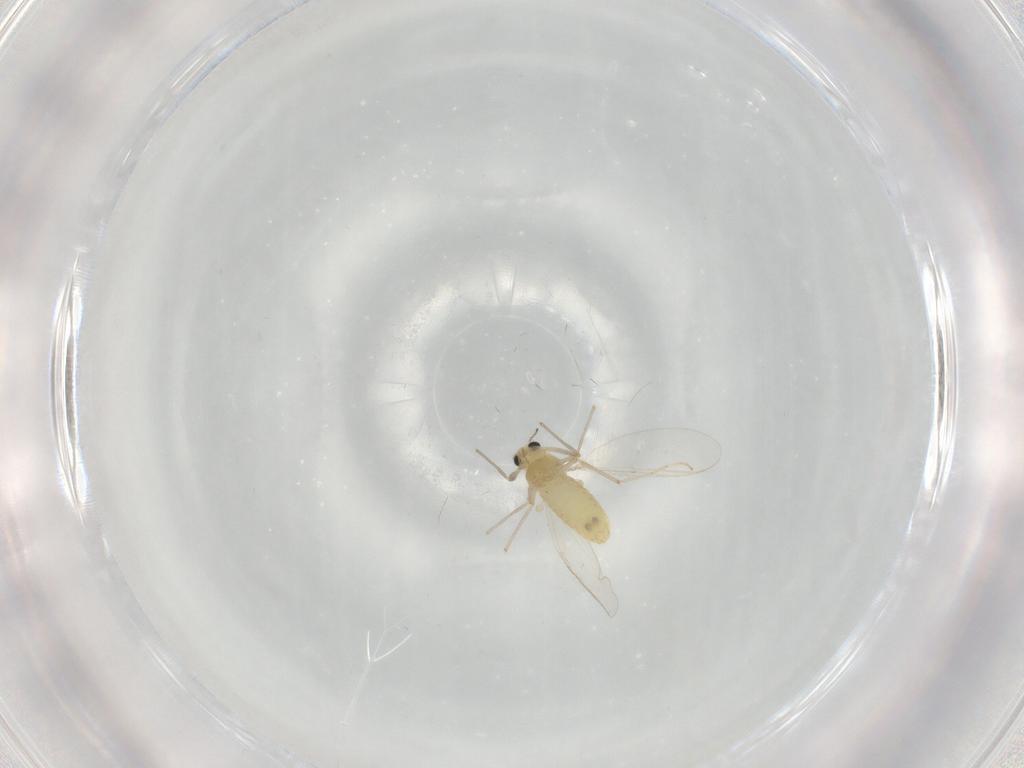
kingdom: Animalia
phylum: Arthropoda
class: Insecta
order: Diptera
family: Chironomidae
